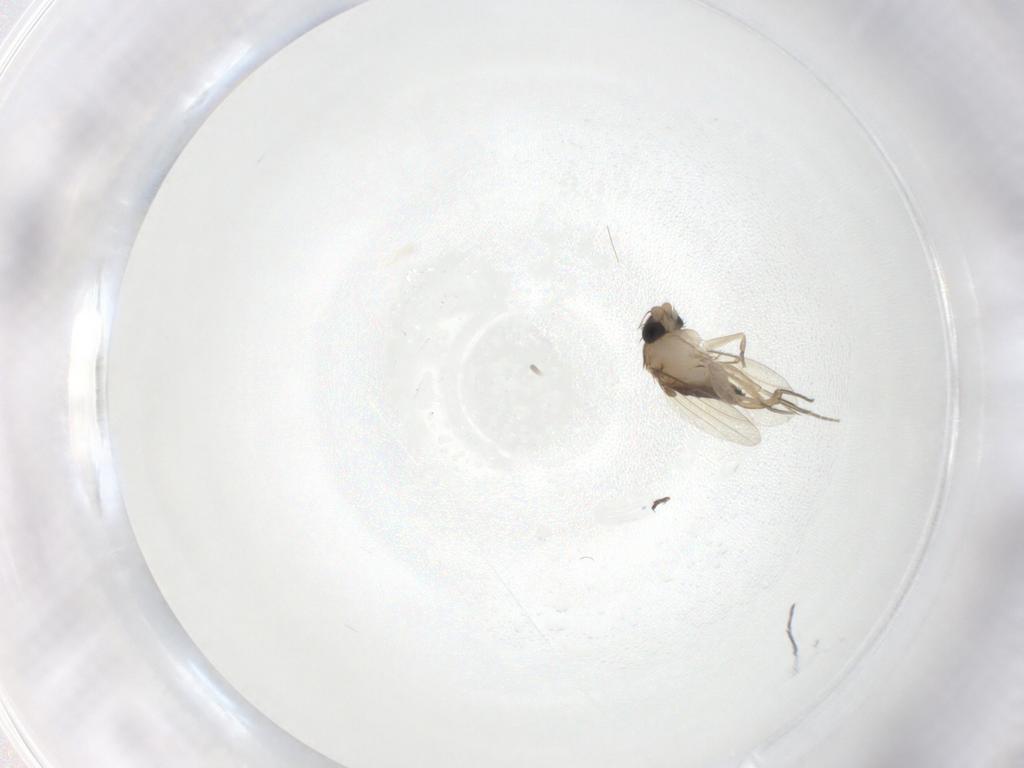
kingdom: Animalia
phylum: Arthropoda
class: Insecta
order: Diptera
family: Phoridae
